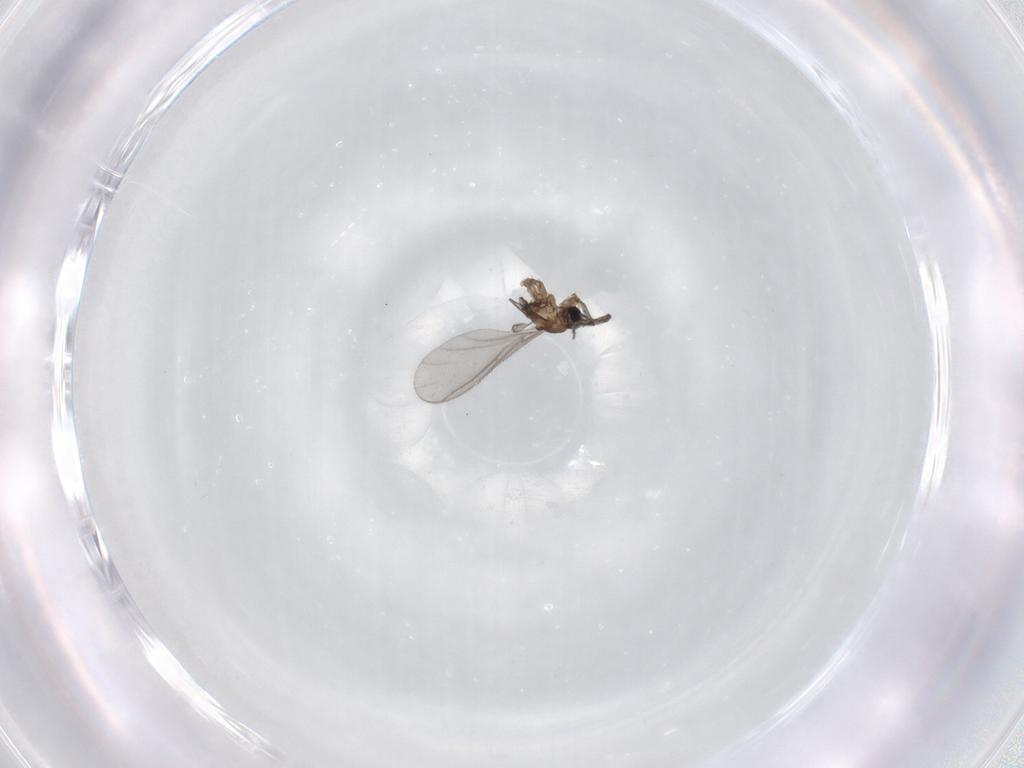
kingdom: Animalia
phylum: Arthropoda
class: Insecta
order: Diptera
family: Sciaridae
